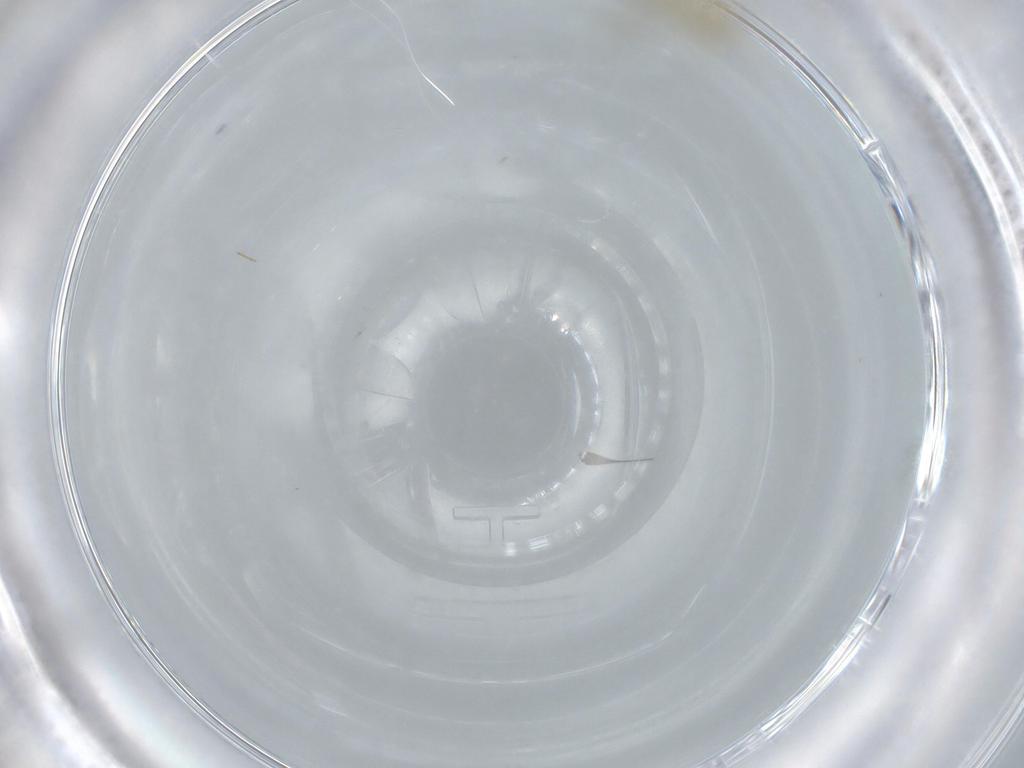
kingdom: Animalia
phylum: Arthropoda
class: Insecta
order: Diptera
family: Chironomidae
